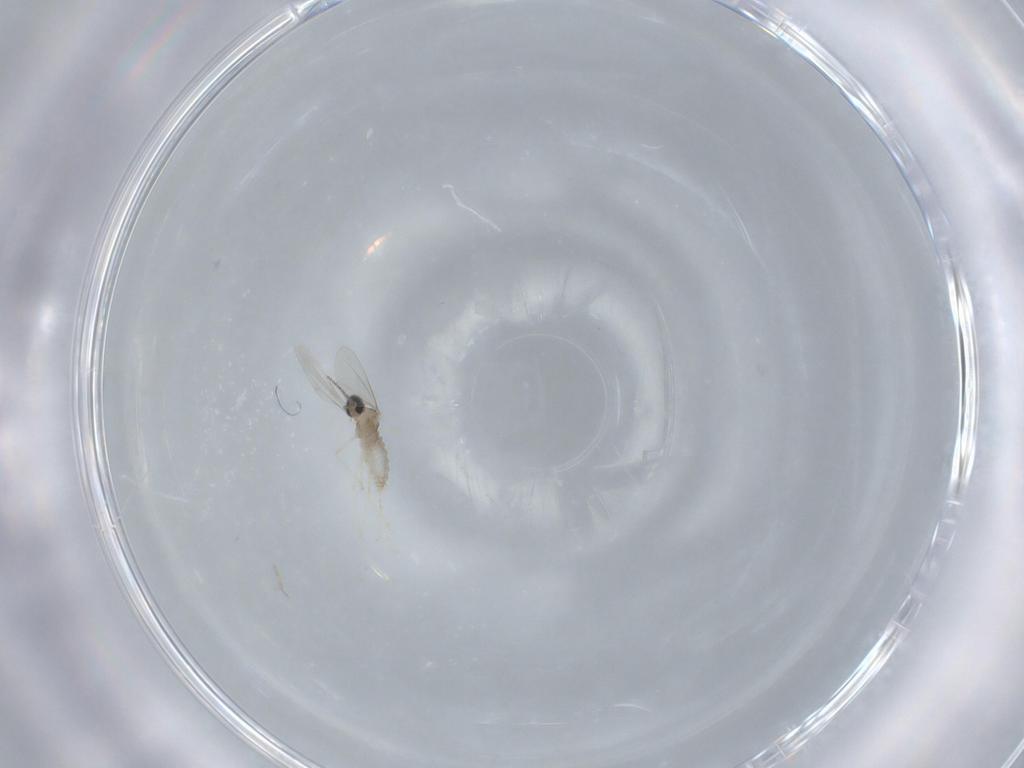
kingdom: Animalia
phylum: Arthropoda
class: Insecta
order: Diptera
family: Cecidomyiidae
